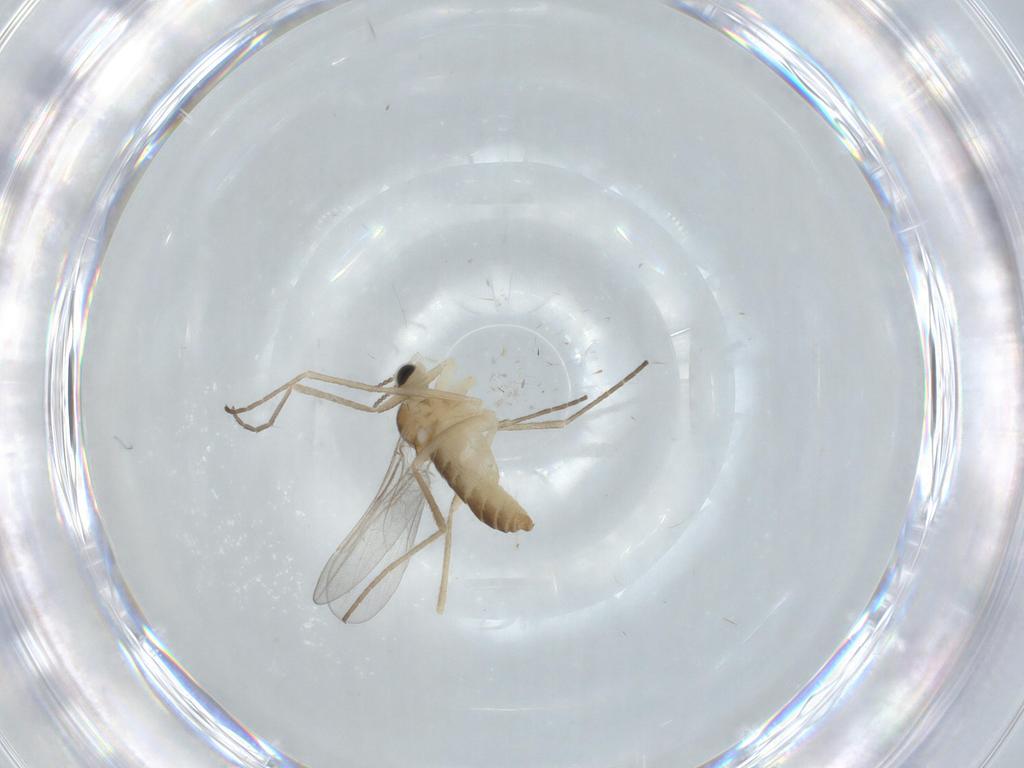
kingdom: Animalia
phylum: Arthropoda
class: Insecta
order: Diptera
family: Cecidomyiidae
